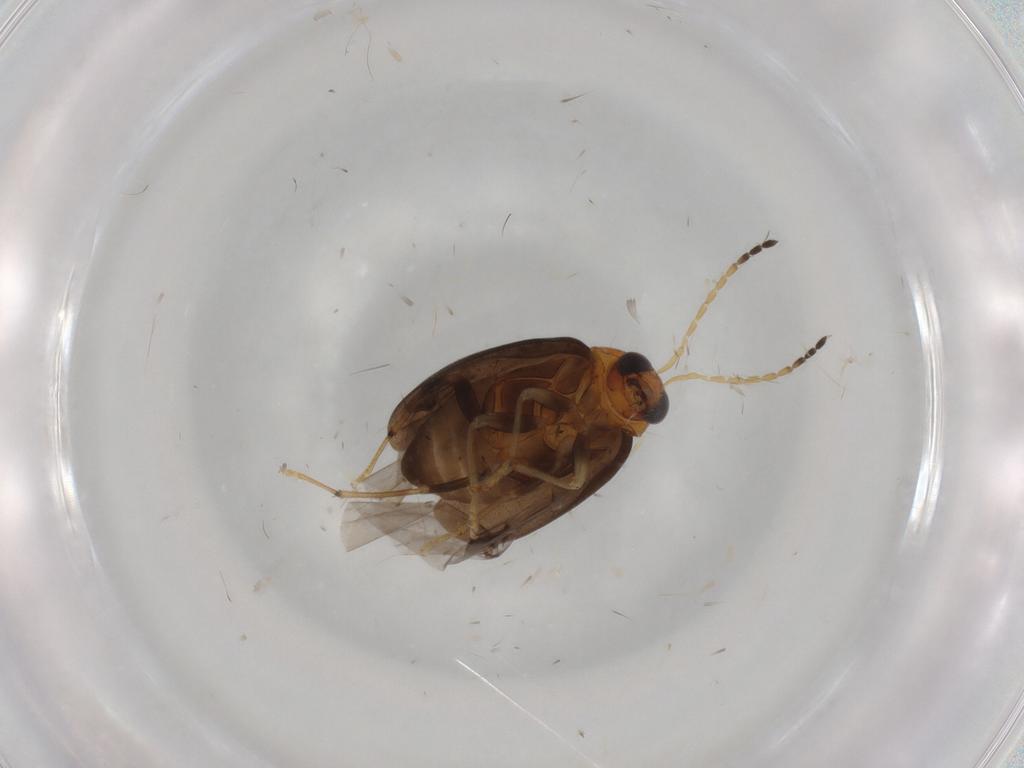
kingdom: Animalia
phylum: Arthropoda
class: Insecta
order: Coleoptera
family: Chrysomelidae
